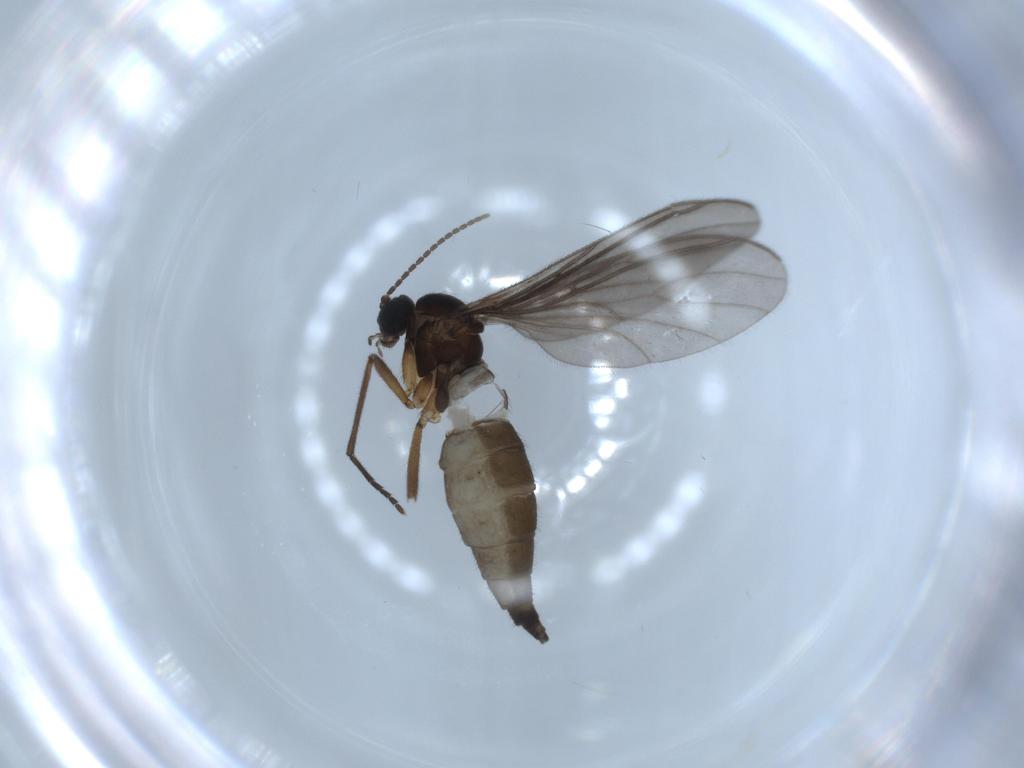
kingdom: Animalia
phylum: Arthropoda
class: Insecta
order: Diptera
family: Sciaridae
